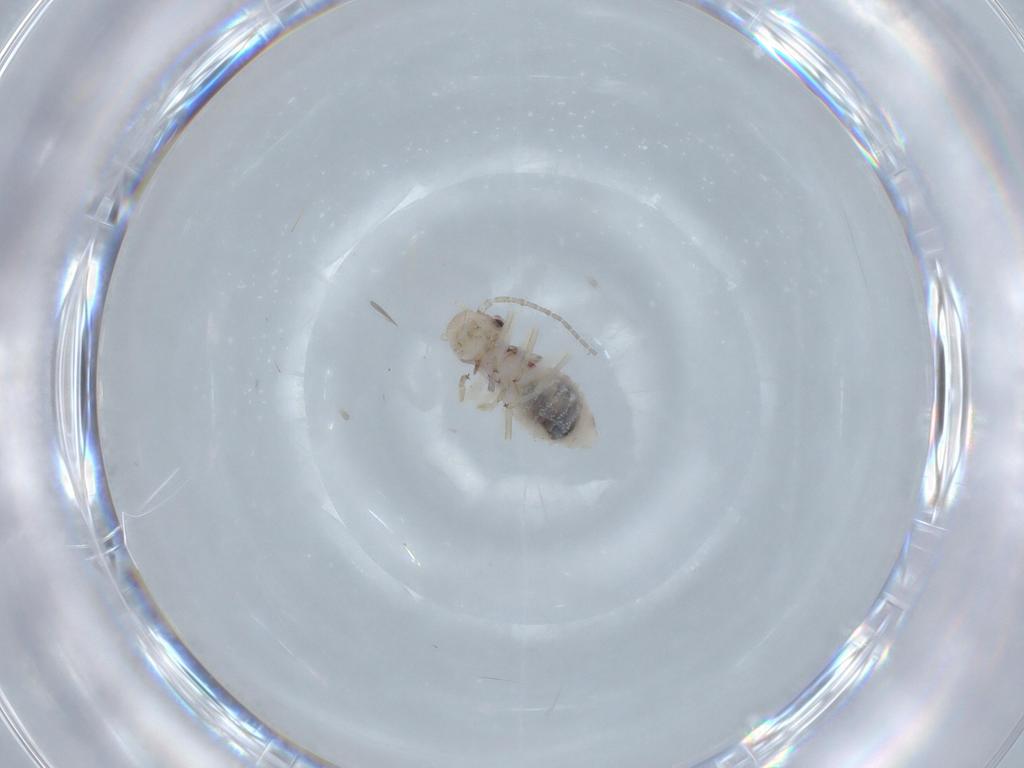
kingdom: Animalia
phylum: Arthropoda
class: Insecta
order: Psocodea
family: Amphipsocidae
